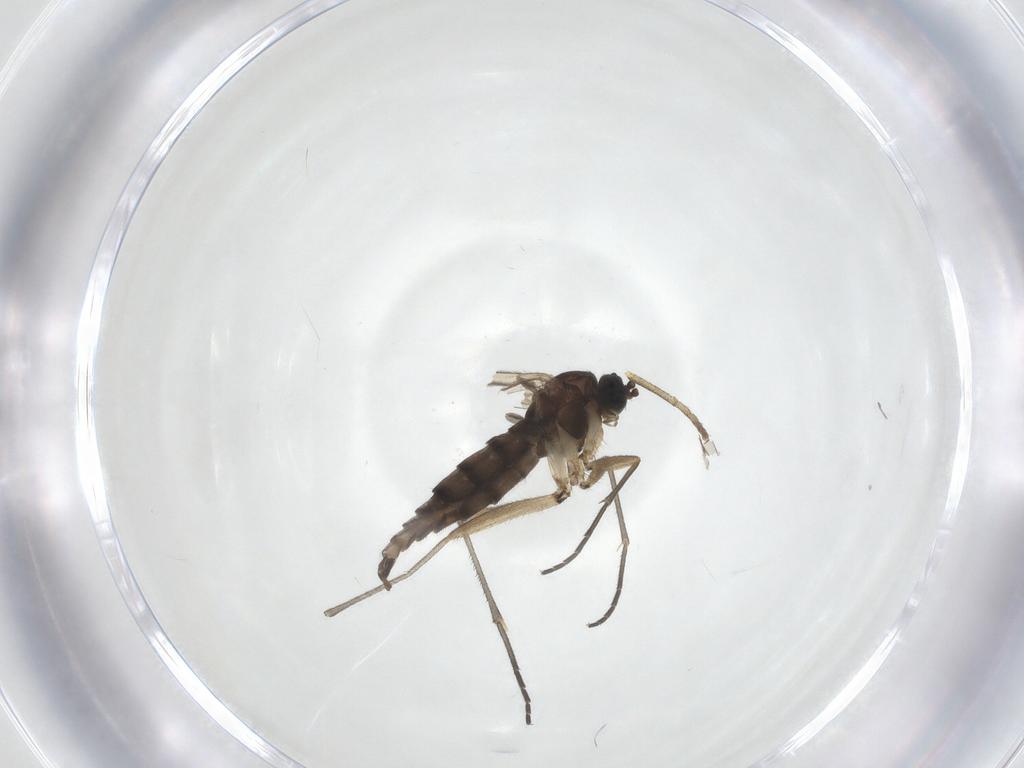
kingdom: Animalia
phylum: Arthropoda
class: Insecta
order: Diptera
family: Sciaridae
